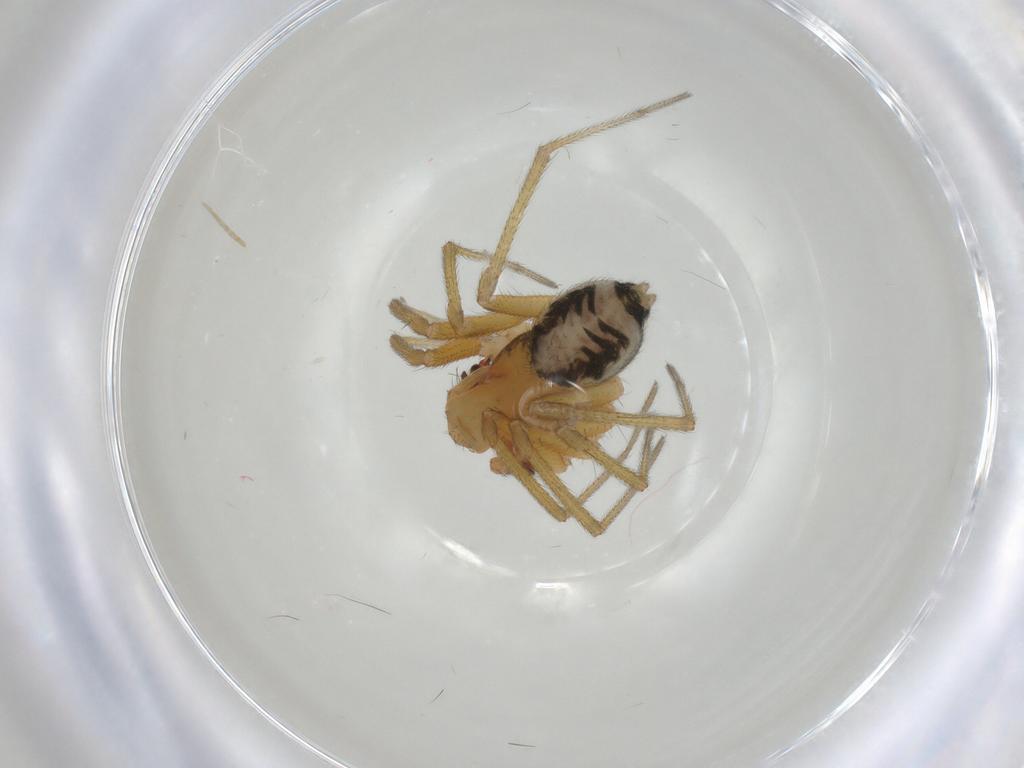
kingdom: Animalia
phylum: Arthropoda
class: Arachnida
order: Araneae
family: Linyphiidae
